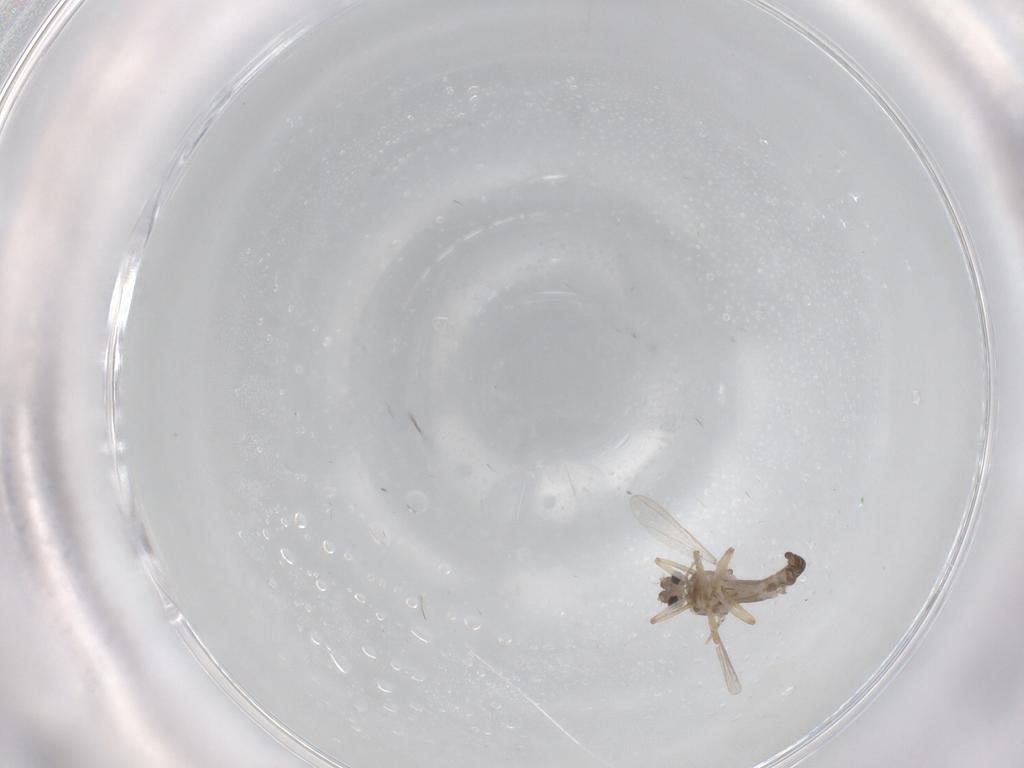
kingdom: Animalia
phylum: Arthropoda
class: Insecta
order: Diptera
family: Ceratopogonidae
